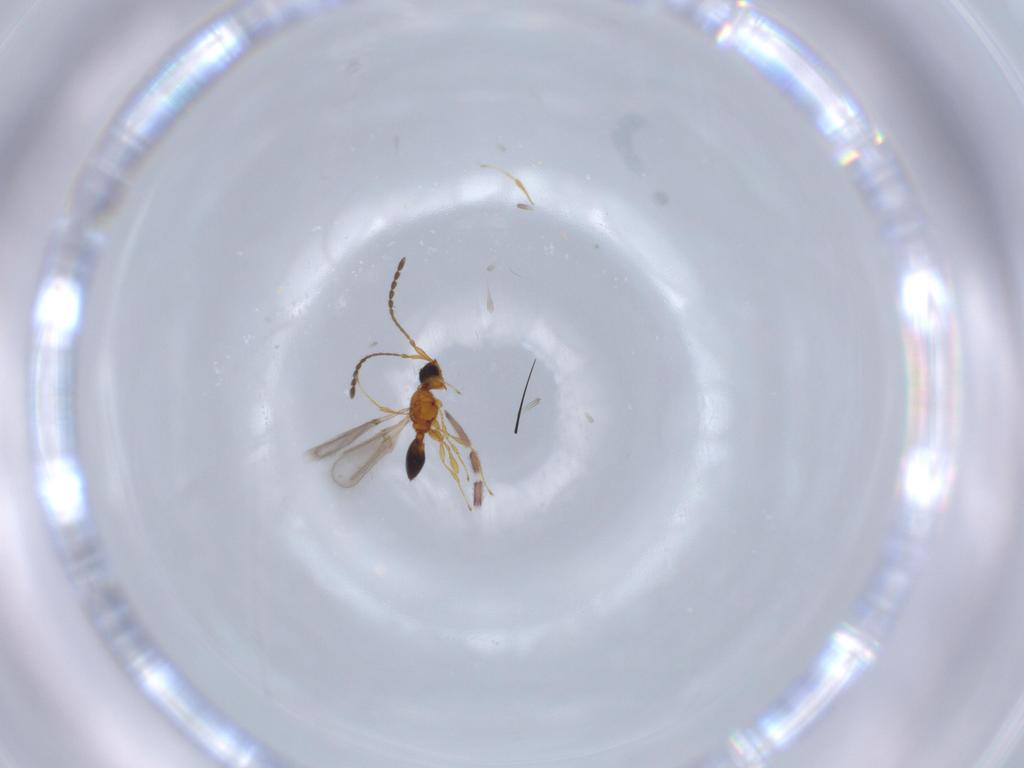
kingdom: Animalia
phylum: Arthropoda
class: Insecta
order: Hymenoptera
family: Diapriidae
